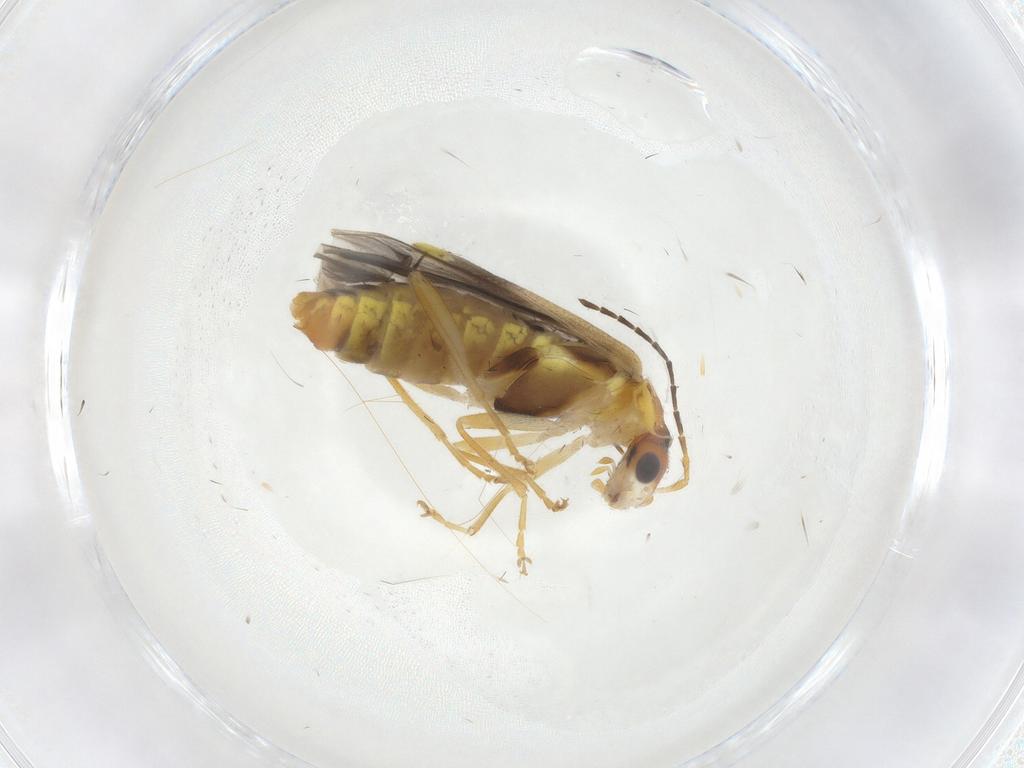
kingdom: Animalia
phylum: Arthropoda
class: Insecta
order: Coleoptera
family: Cantharidae
